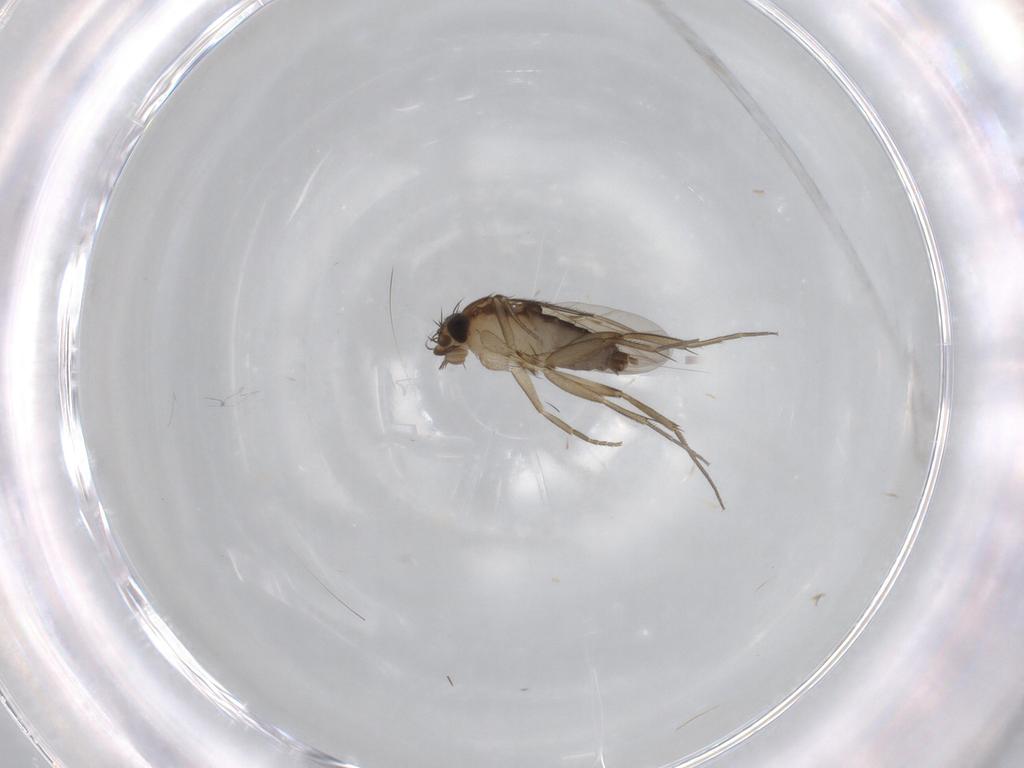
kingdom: Animalia
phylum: Arthropoda
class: Insecta
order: Diptera
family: Phoridae
